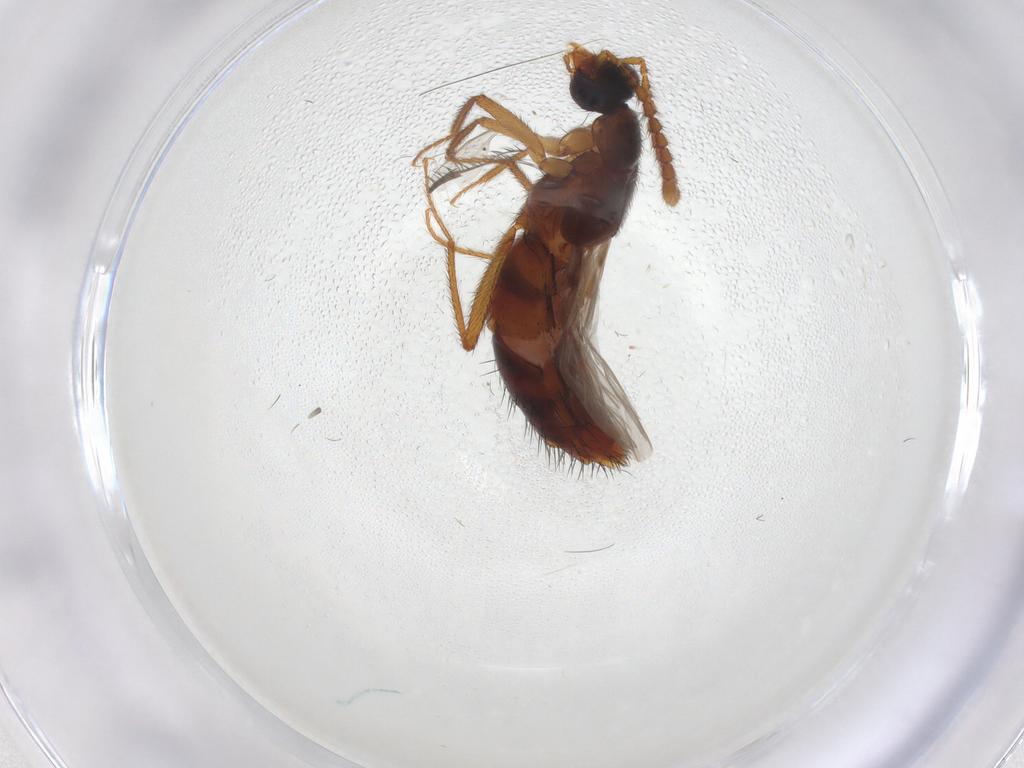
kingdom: Animalia
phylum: Arthropoda
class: Insecta
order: Coleoptera
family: Staphylinidae
